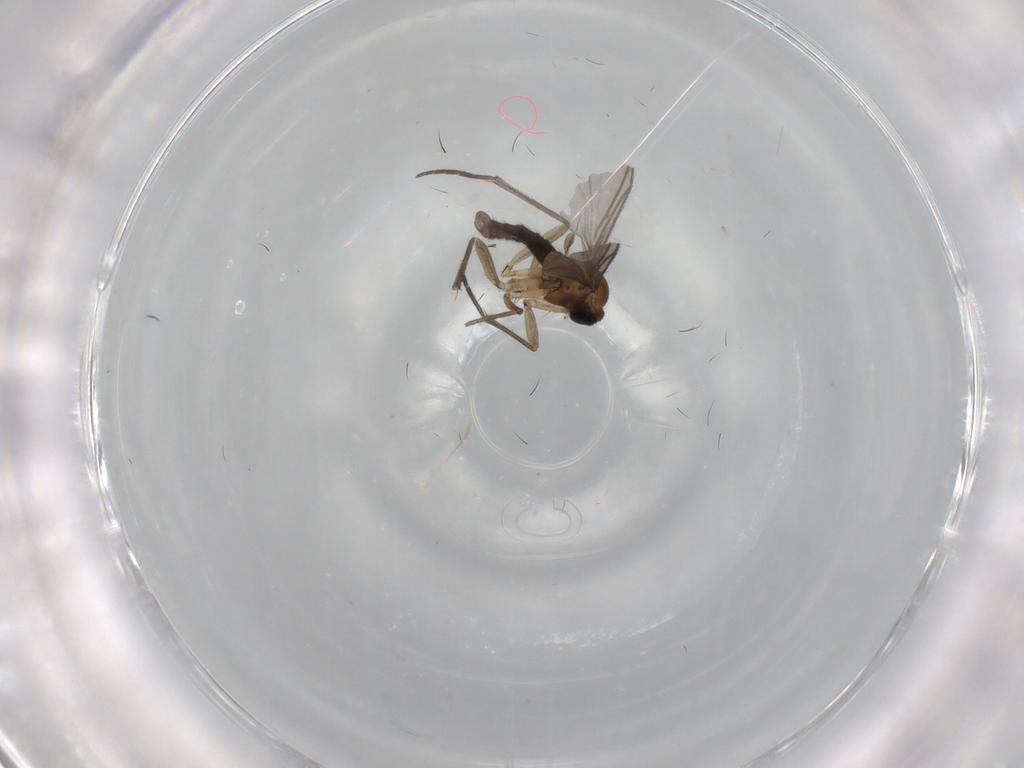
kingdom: Animalia
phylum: Arthropoda
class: Insecta
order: Diptera
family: Sciaridae
